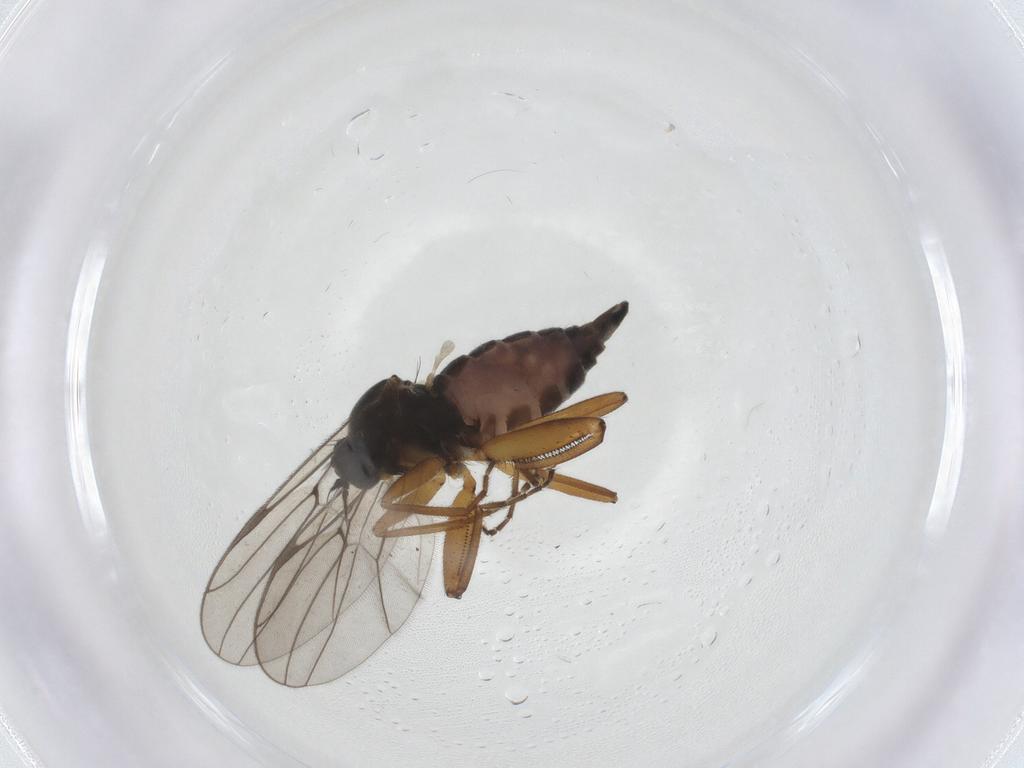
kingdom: Animalia
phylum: Arthropoda
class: Insecta
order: Diptera
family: Hybotidae
